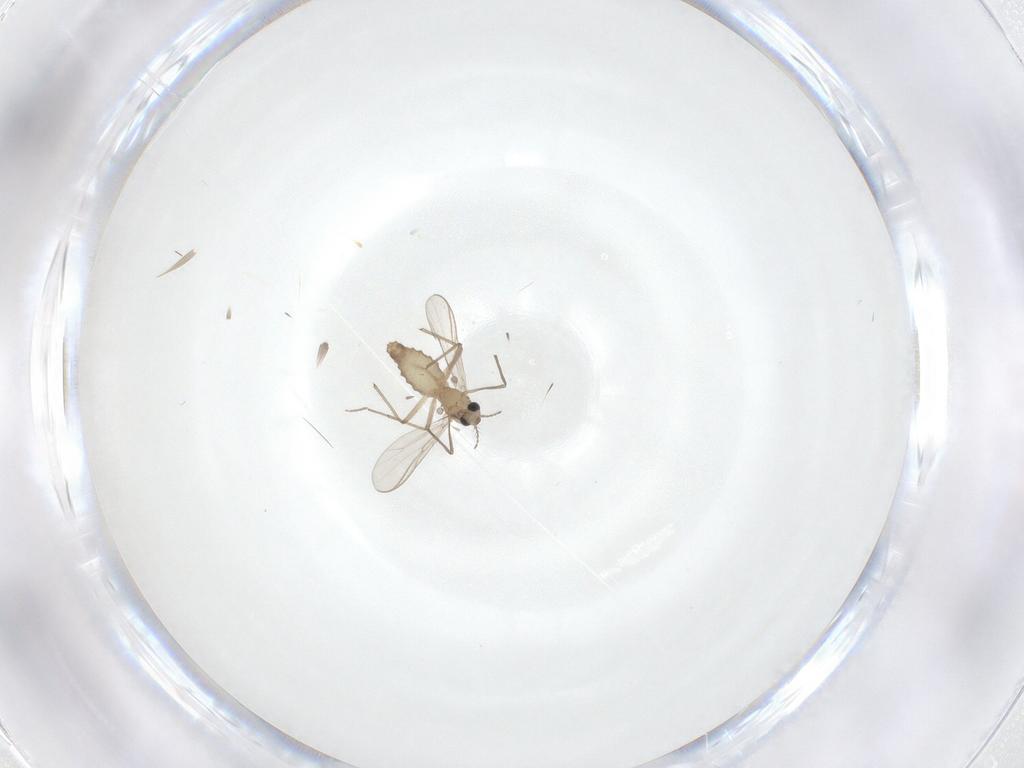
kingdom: Animalia
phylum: Arthropoda
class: Insecta
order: Diptera
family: Chironomidae
